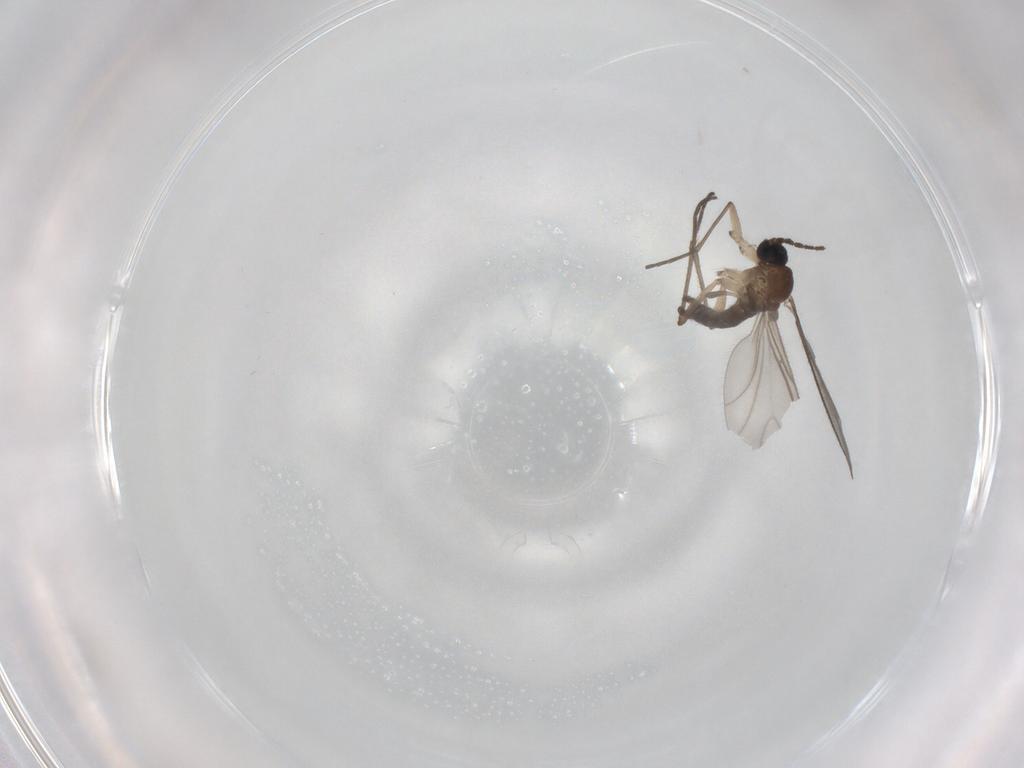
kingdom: Animalia
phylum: Arthropoda
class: Insecta
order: Diptera
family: Sciaridae
